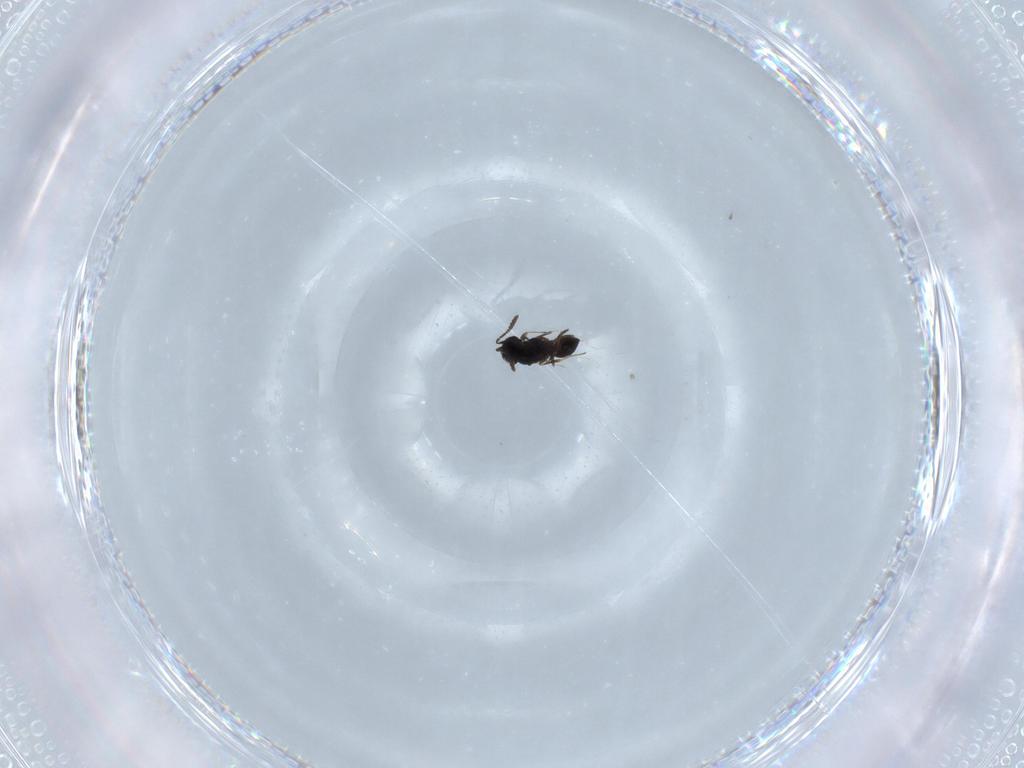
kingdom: Animalia
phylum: Arthropoda
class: Insecta
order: Hymenoptera
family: Scelionidae
